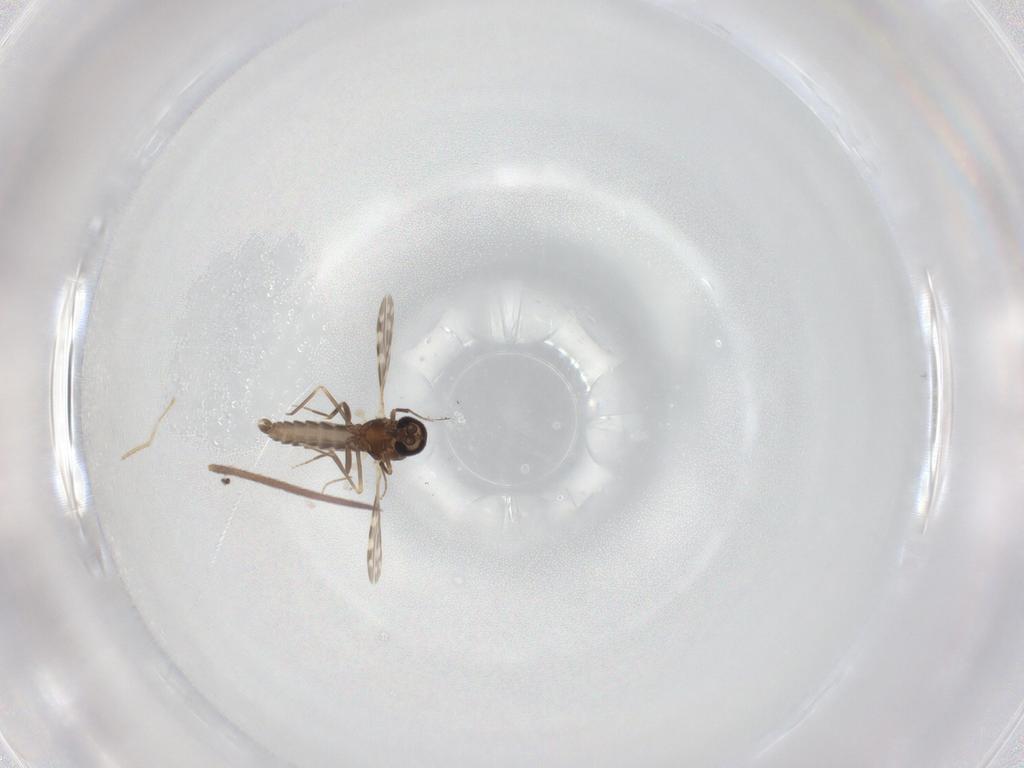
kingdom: Animalia
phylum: Arthropoda
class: Insecta
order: Diptera
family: Ceratopogonidae
